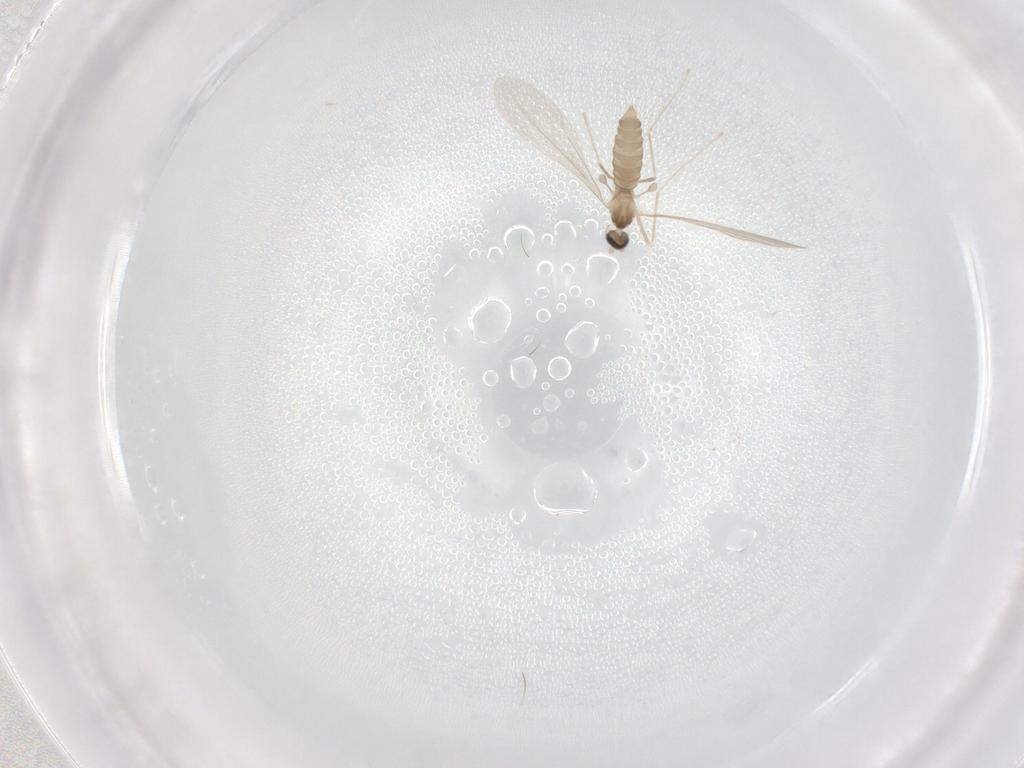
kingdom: Animalia
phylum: Arthropoda
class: Insecta
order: Diptera
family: Psychodidae
